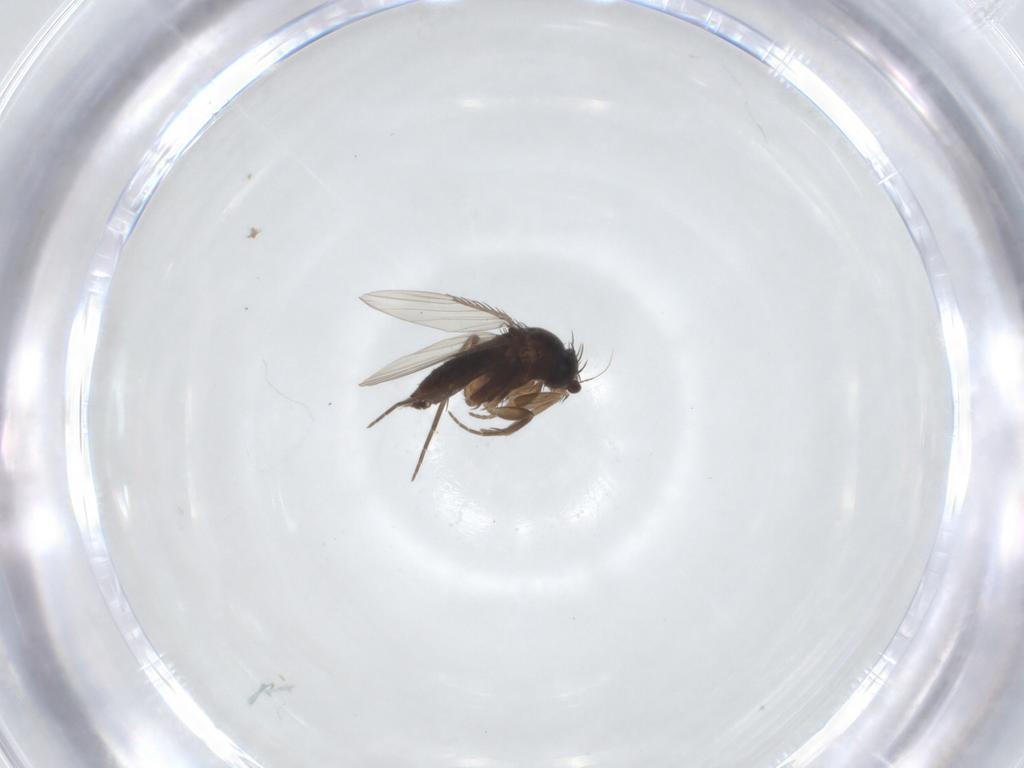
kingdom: Animalia
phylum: Arthropoda
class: Insecta
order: Diptera
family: Phoridae
